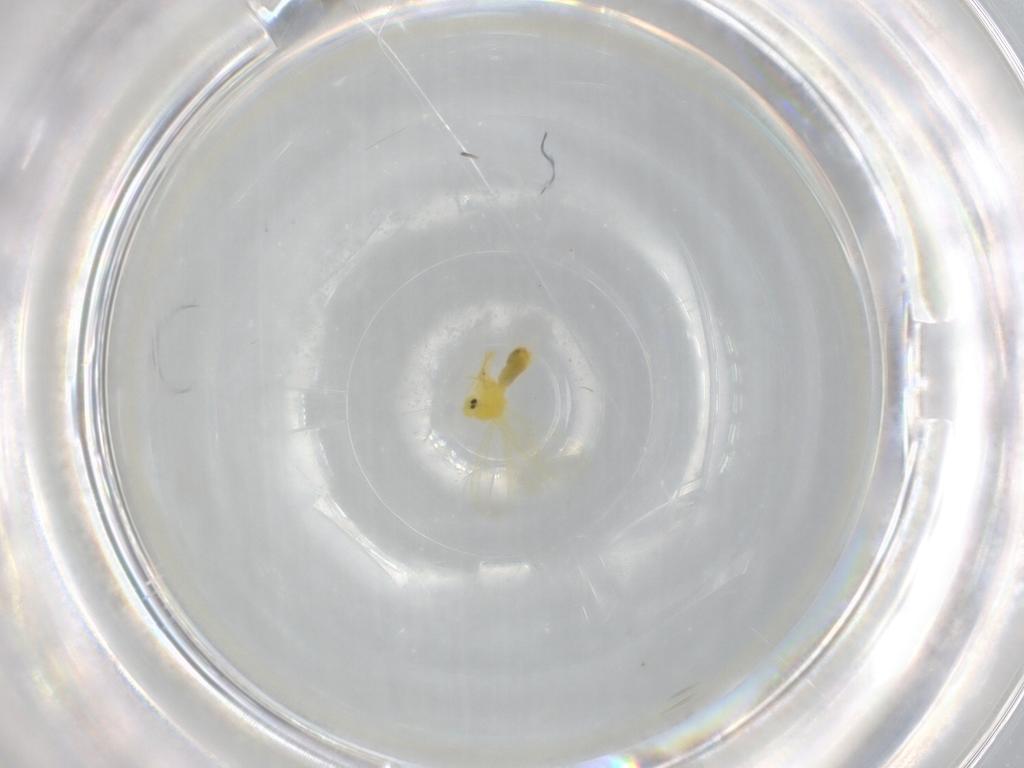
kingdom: Animalia
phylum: Arthropoda
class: Insecta
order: Hemiptera
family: Aleyrodidae
